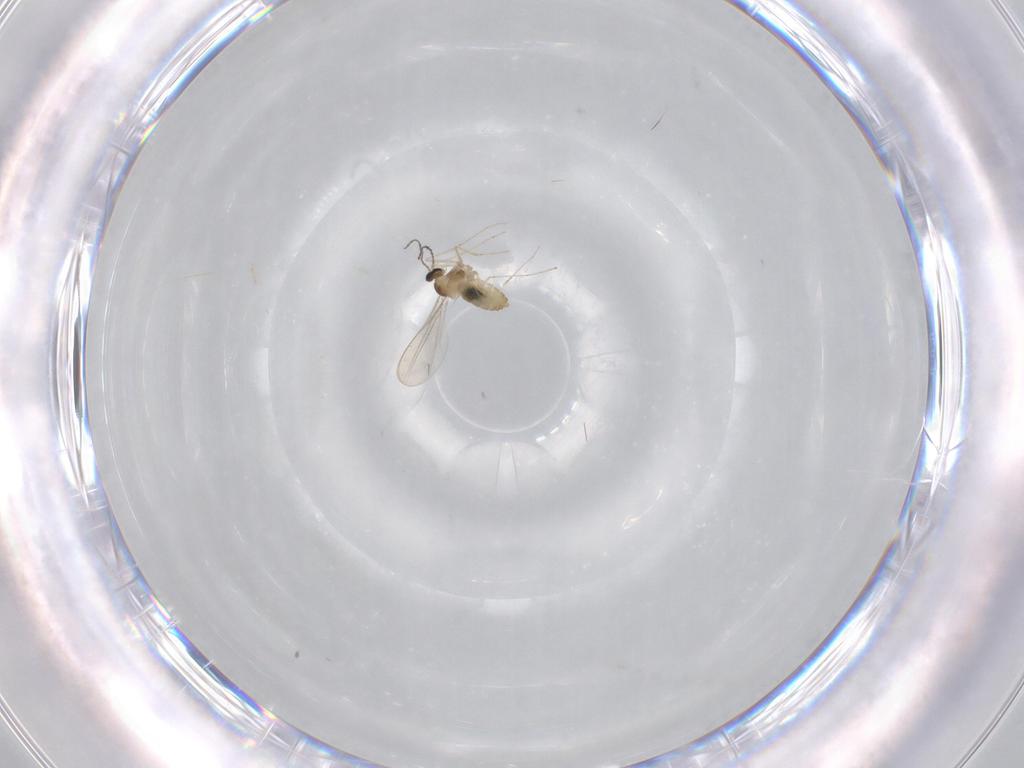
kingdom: Animalia
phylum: Arthropoda
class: Insecta
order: Diptera
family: Cecidomyiidae
